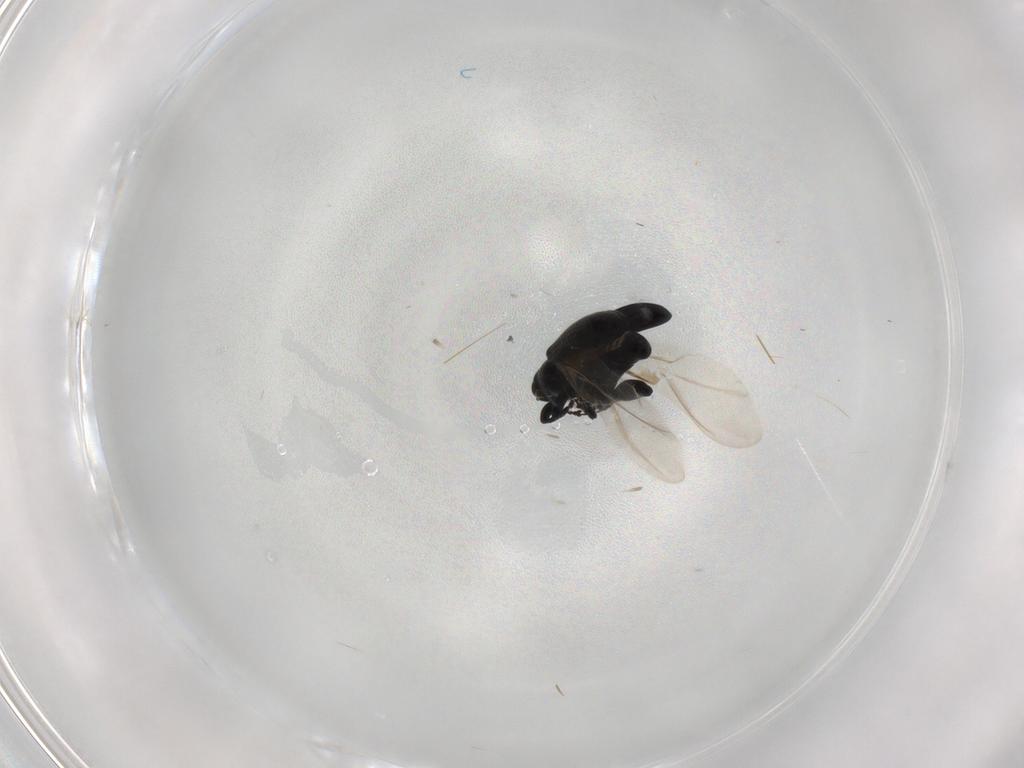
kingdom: Animalia
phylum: Arthropoda
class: Insecta
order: Coleoptera
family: Curculionidae
